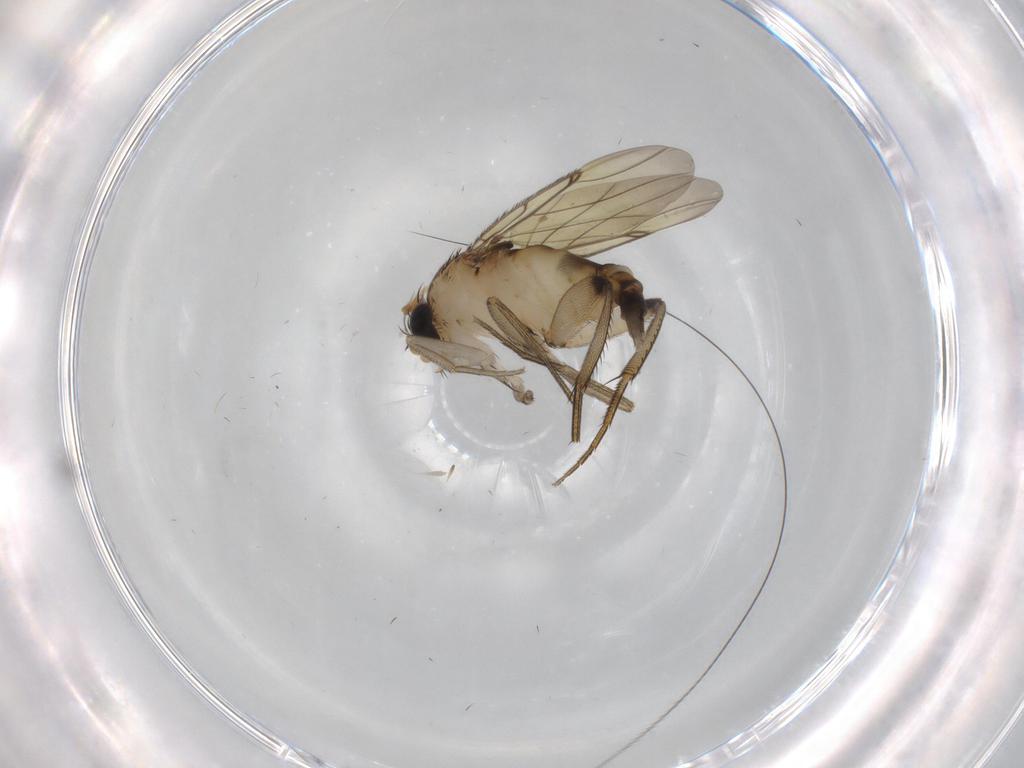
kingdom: Animalia
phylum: Arthropoda
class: Insecta
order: Diptera
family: Phoridae
